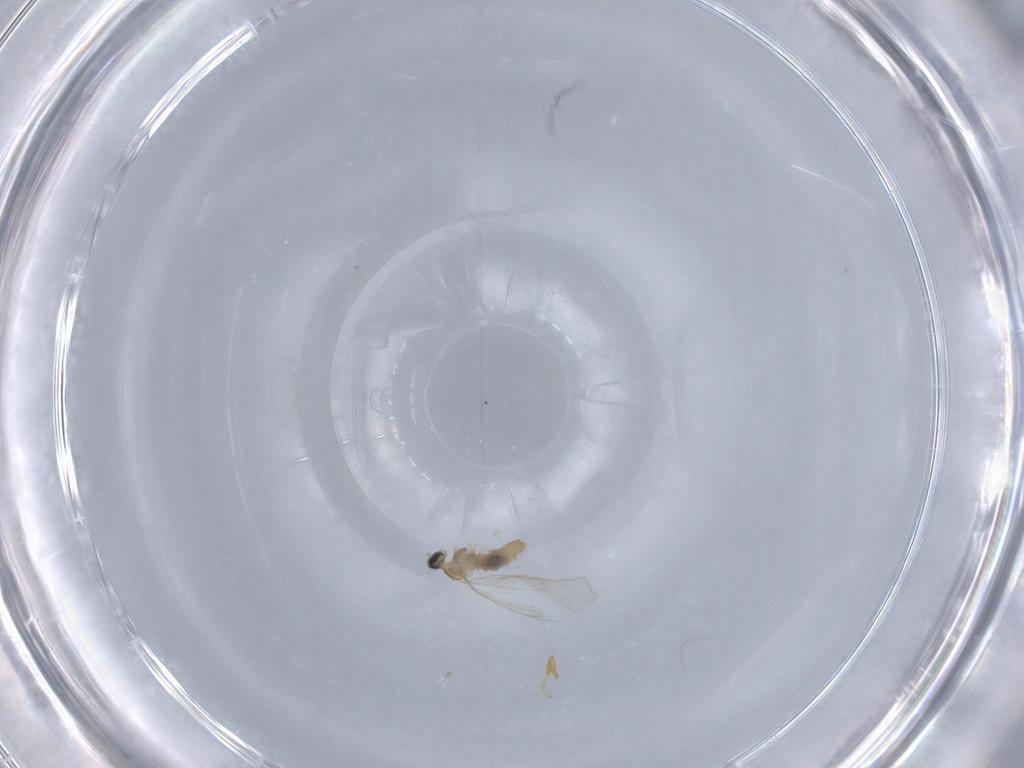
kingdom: Animalia
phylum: Arthropoda
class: Insecta
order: Diptera
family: Cecidomyiidae
